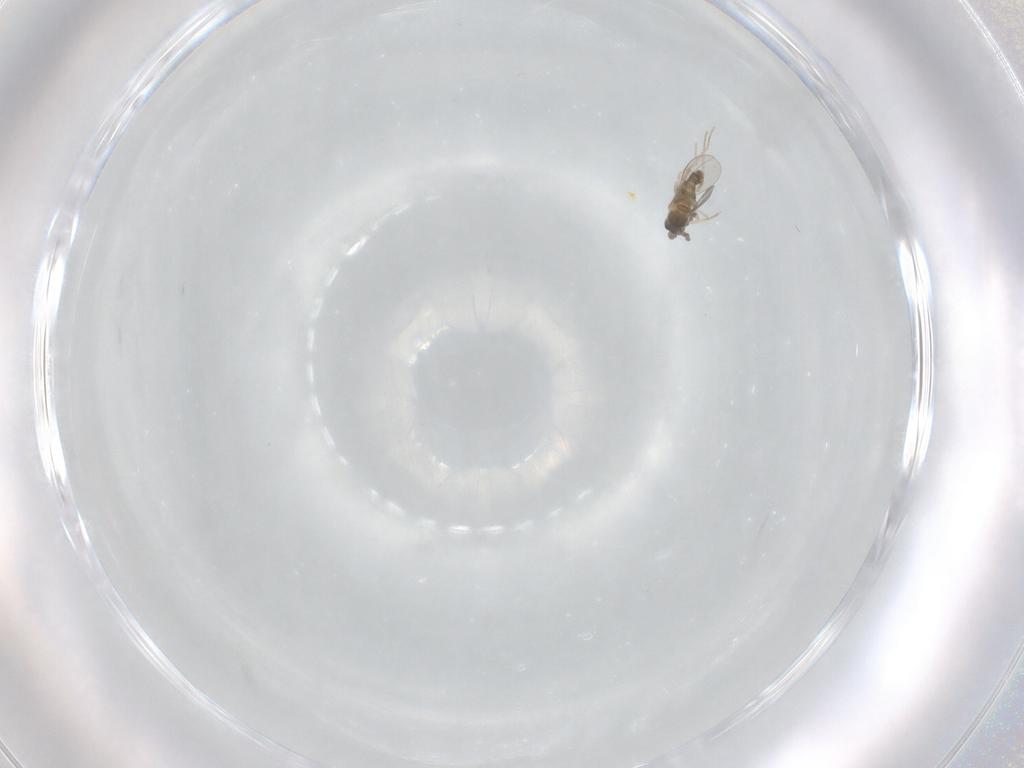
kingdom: Animalia
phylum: Arthropoda
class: Insecta
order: Diptera
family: Cecidomyiidae
